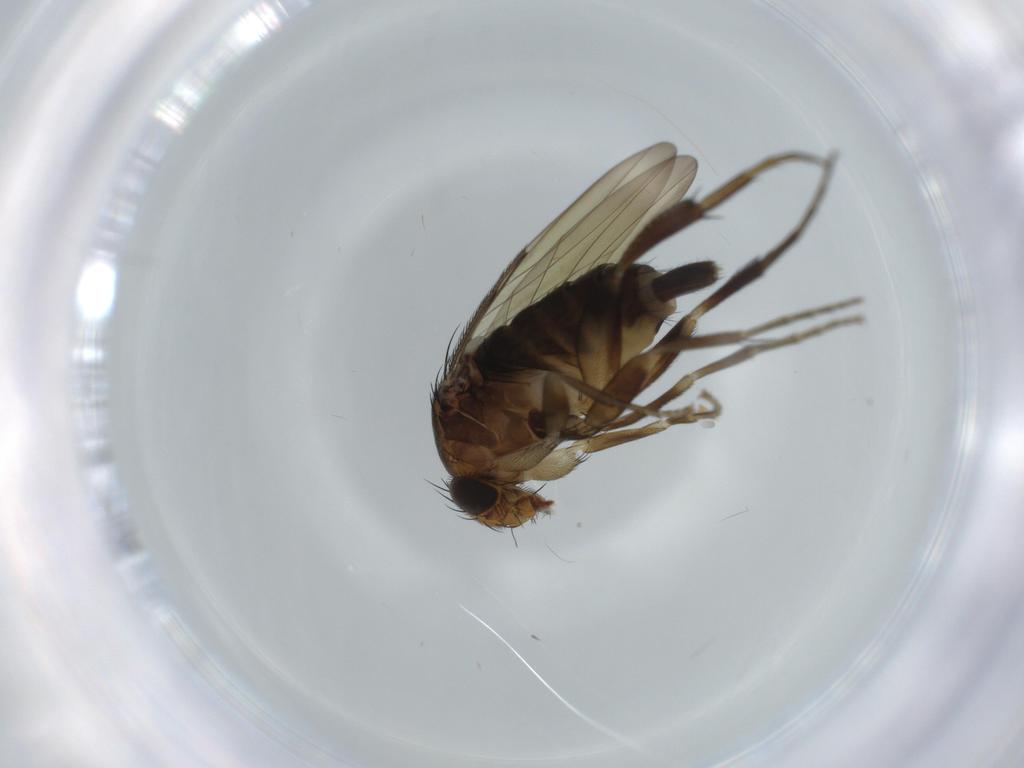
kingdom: Animalia
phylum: Arthropoda
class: Insecta
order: Diptera
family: Phoridae
